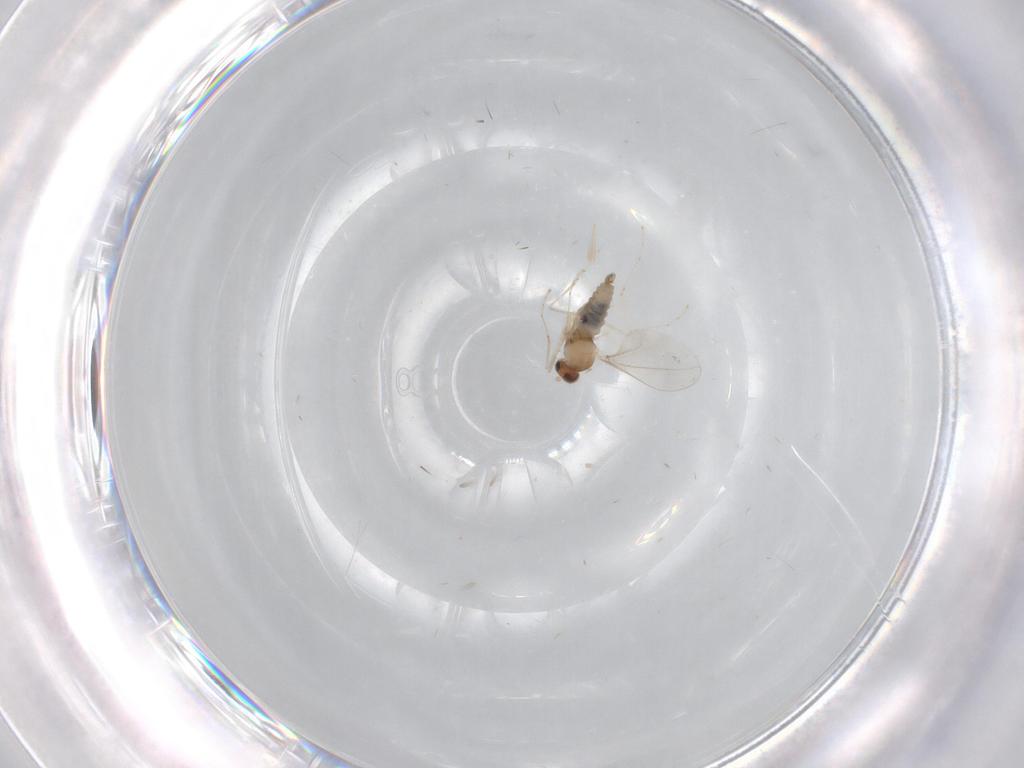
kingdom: Animalia
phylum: Arthropoda
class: Insecta
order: Diptera
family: Cecidomyiidae
